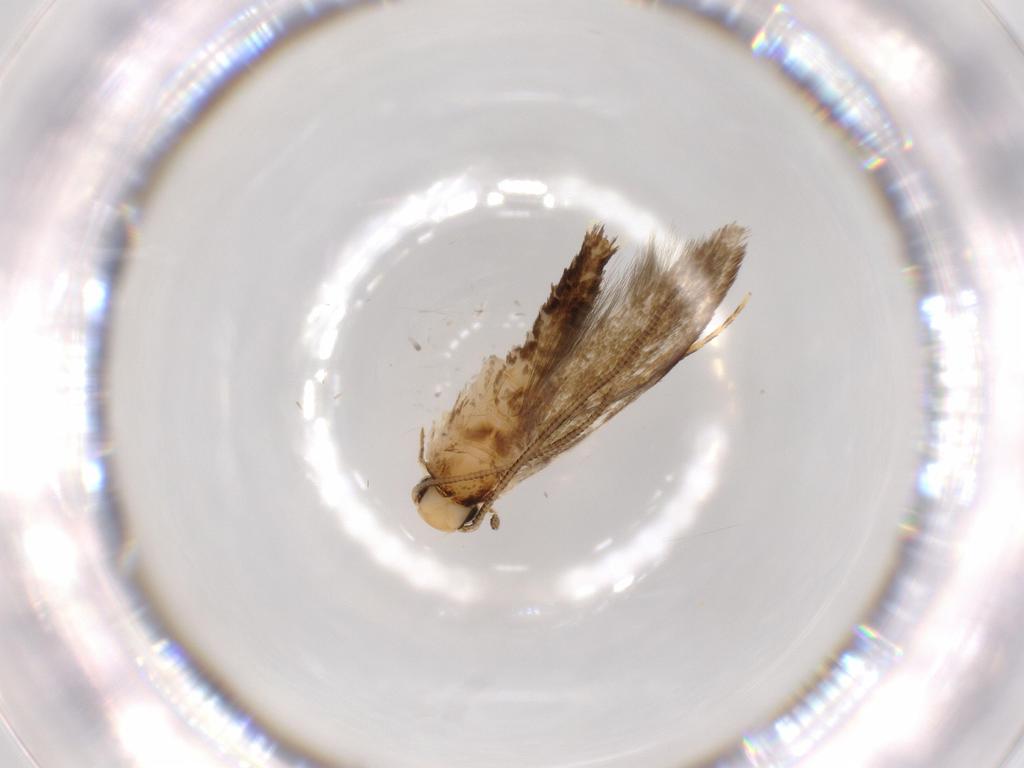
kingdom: Animalia
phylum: Arthropoda
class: Insecta
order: Lepidoptera
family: Tineidae
